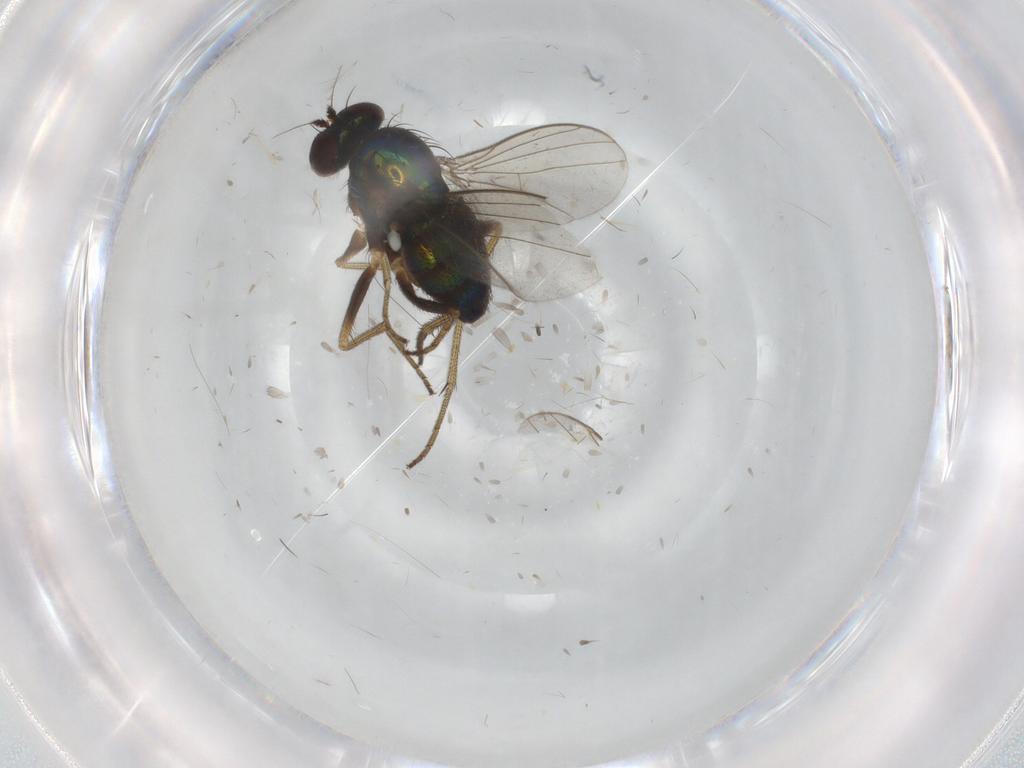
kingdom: Animalia
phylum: Arthropoda
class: Insecta
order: Diptera
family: Dolichopodidae
